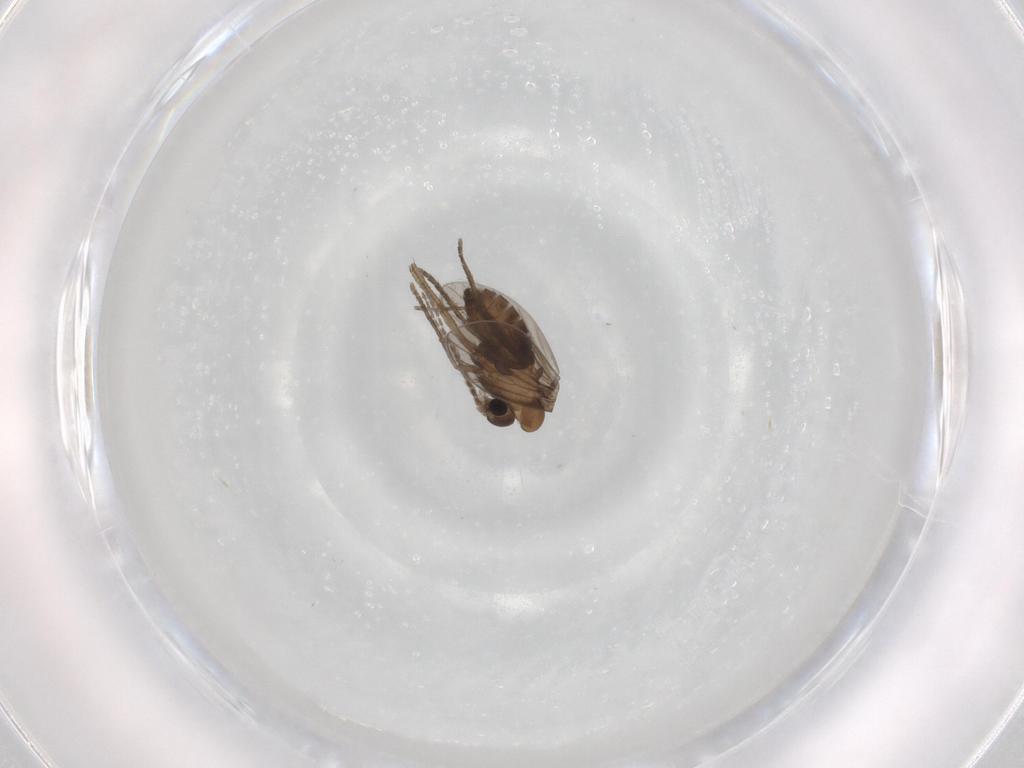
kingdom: Animalia
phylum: Arthropoda
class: Insecta
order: Diptera
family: Psychodidae
